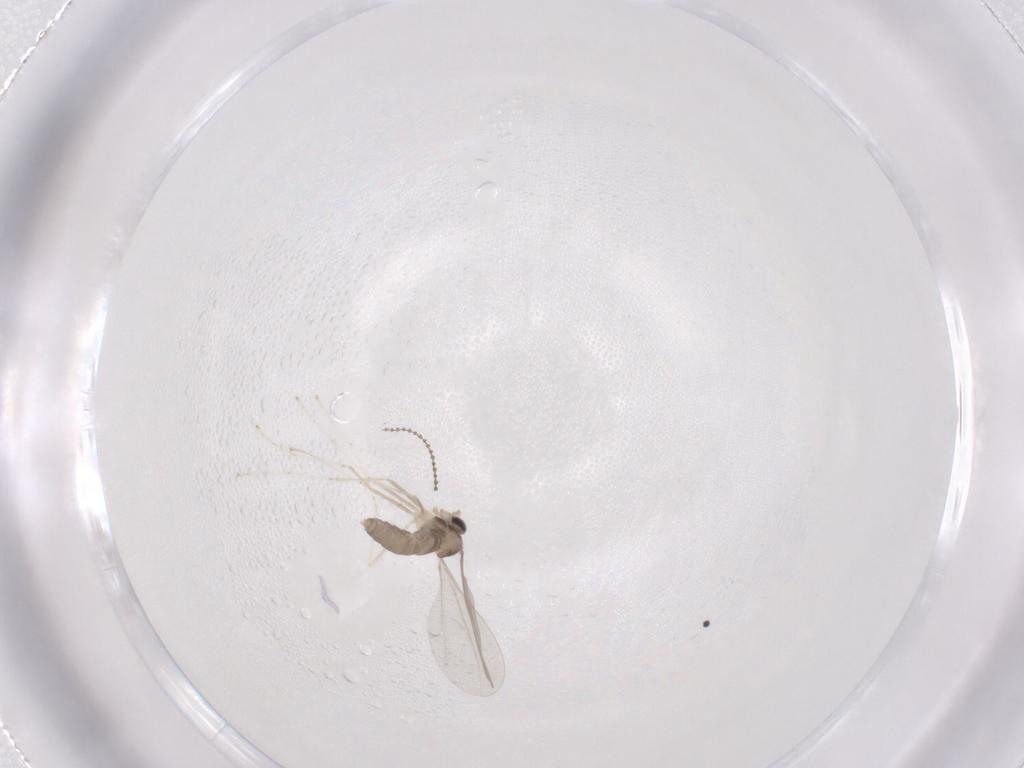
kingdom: Animalia
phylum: Arthropoda
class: Insecta
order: Diptera
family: Cecidomyiidae
